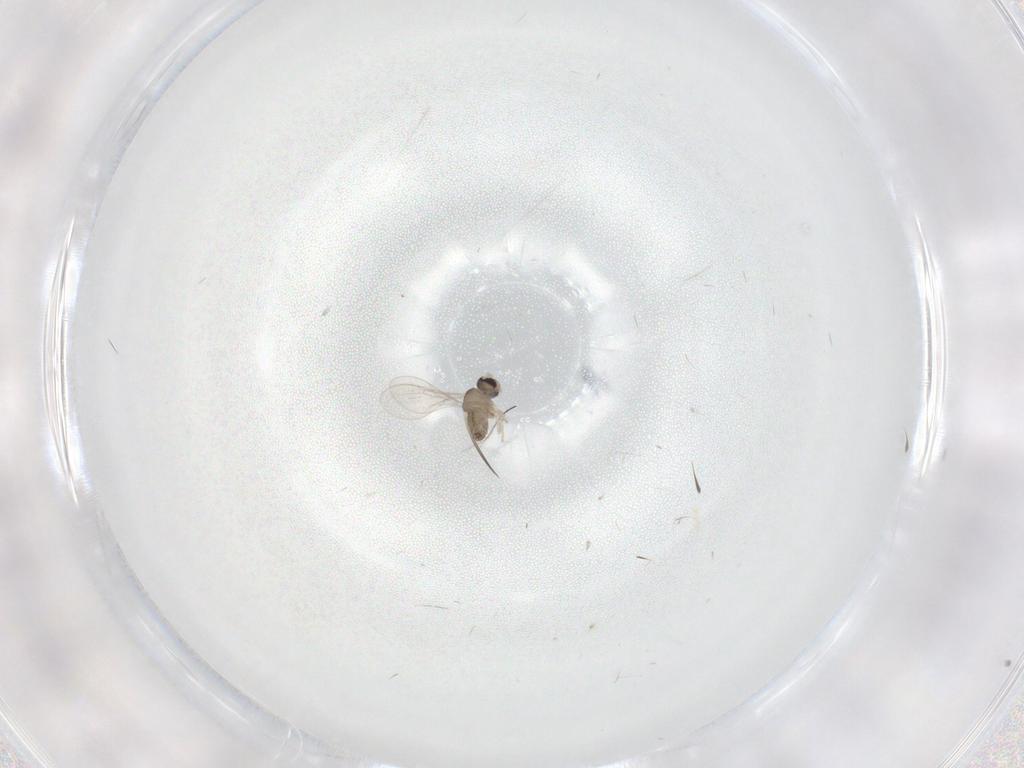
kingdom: Animalia
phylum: Arthropoda
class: Insecta
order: Diptera
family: Cecidomyiidae
